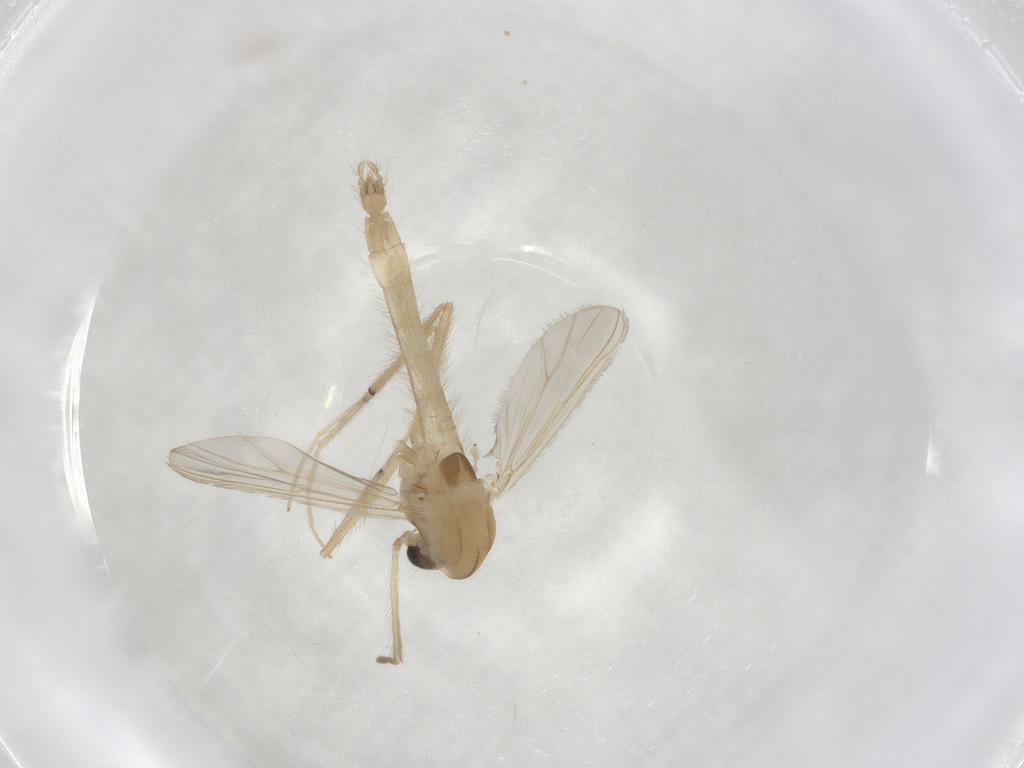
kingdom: Animalia
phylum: Arthropoda
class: Insecta
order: Diptera
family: Chironomidae
